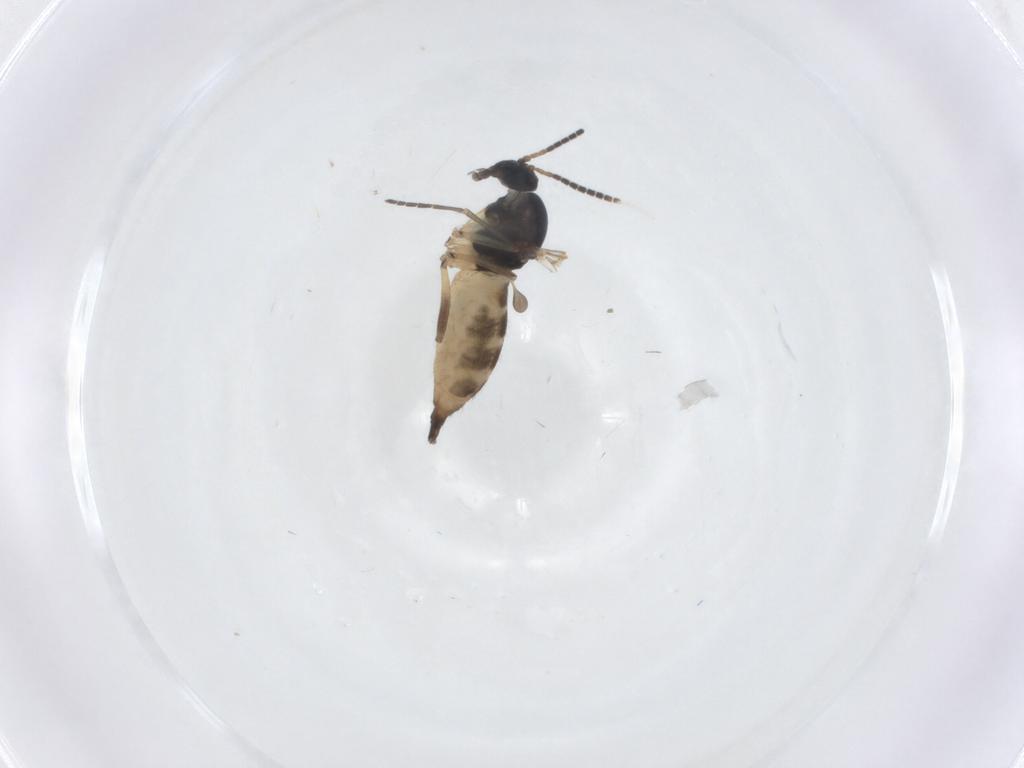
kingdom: Animalia
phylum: Arthropoda
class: Insecta
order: Diptera
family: Sciaridae
